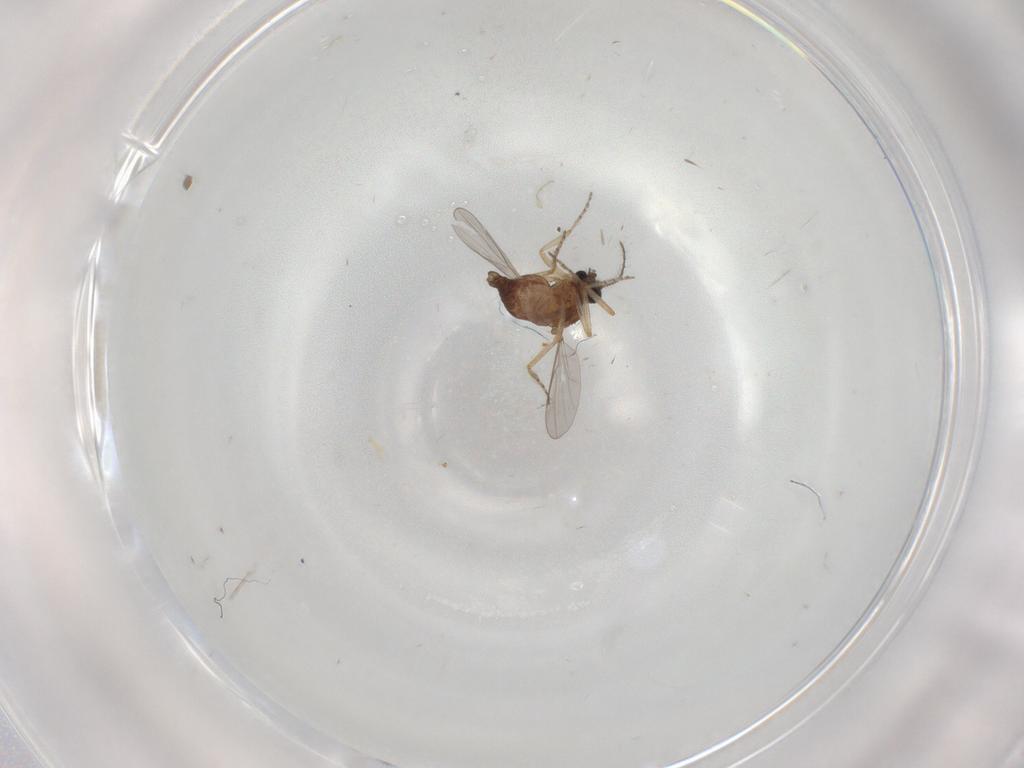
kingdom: Animalia
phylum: Arthropoda
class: Insecta
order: Diptera
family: Ceratopogonidae
